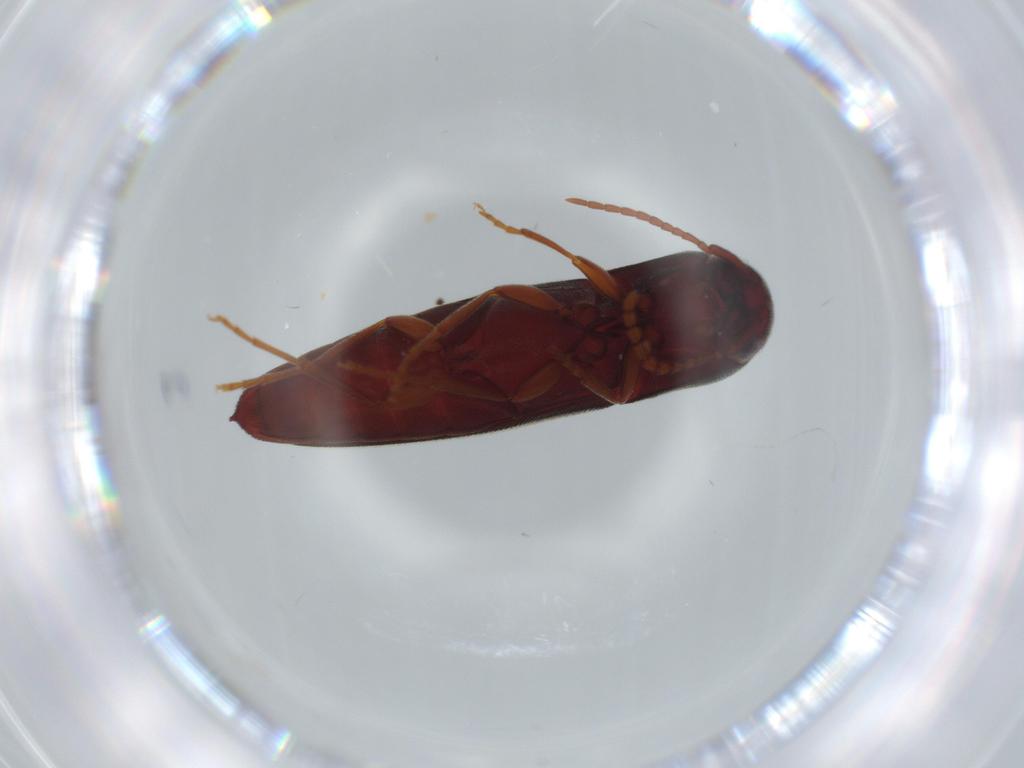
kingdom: Animalia
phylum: Arthropoda
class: Insecta
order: Coleoptera
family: Eucnemidae
